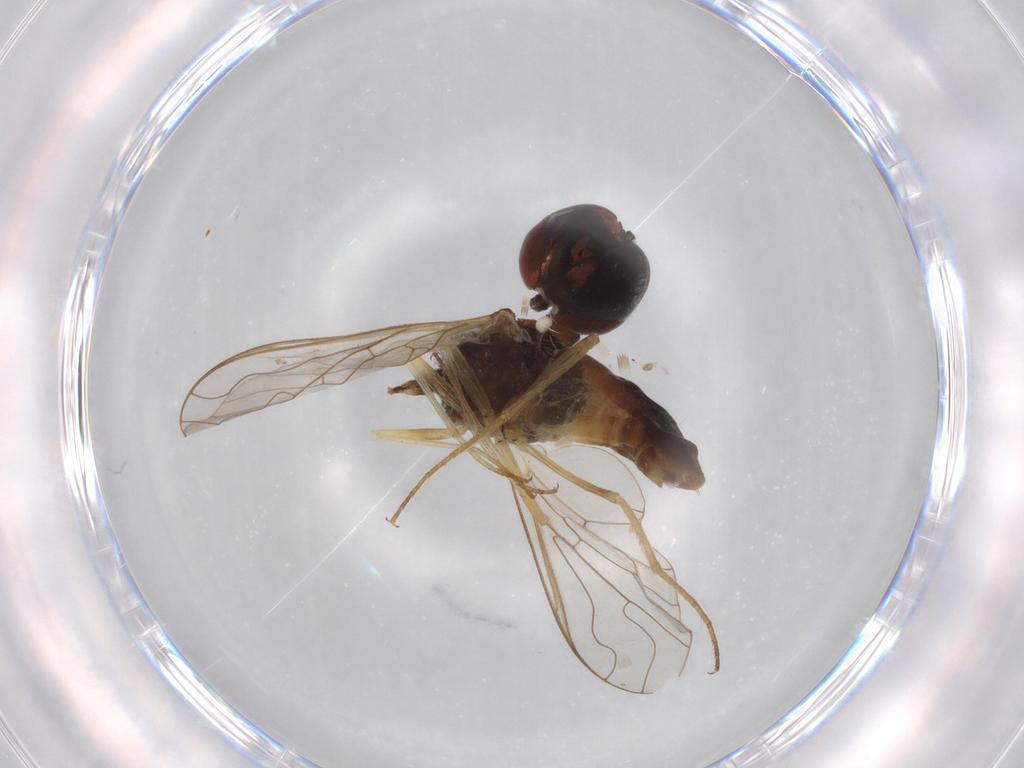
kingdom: Animalia
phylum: Arthropoda
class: Insecta
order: Diptera
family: Bombyliidae
